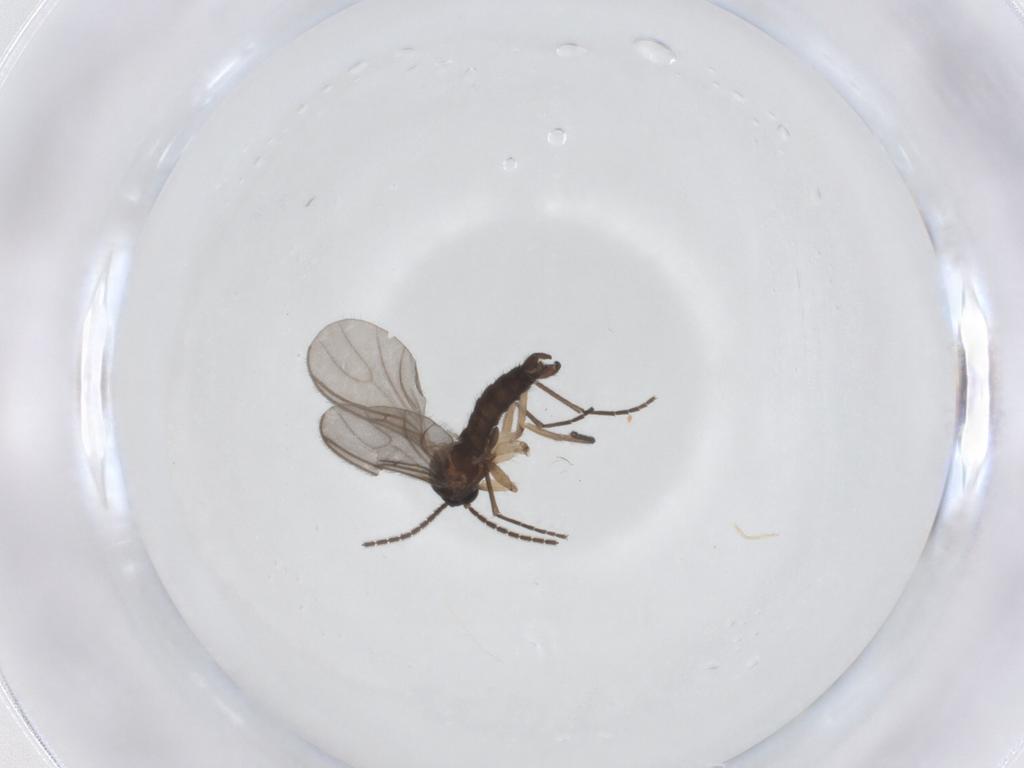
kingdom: Animalia
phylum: Arthropoda
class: Insecta
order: Diptera
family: Sciaridae
